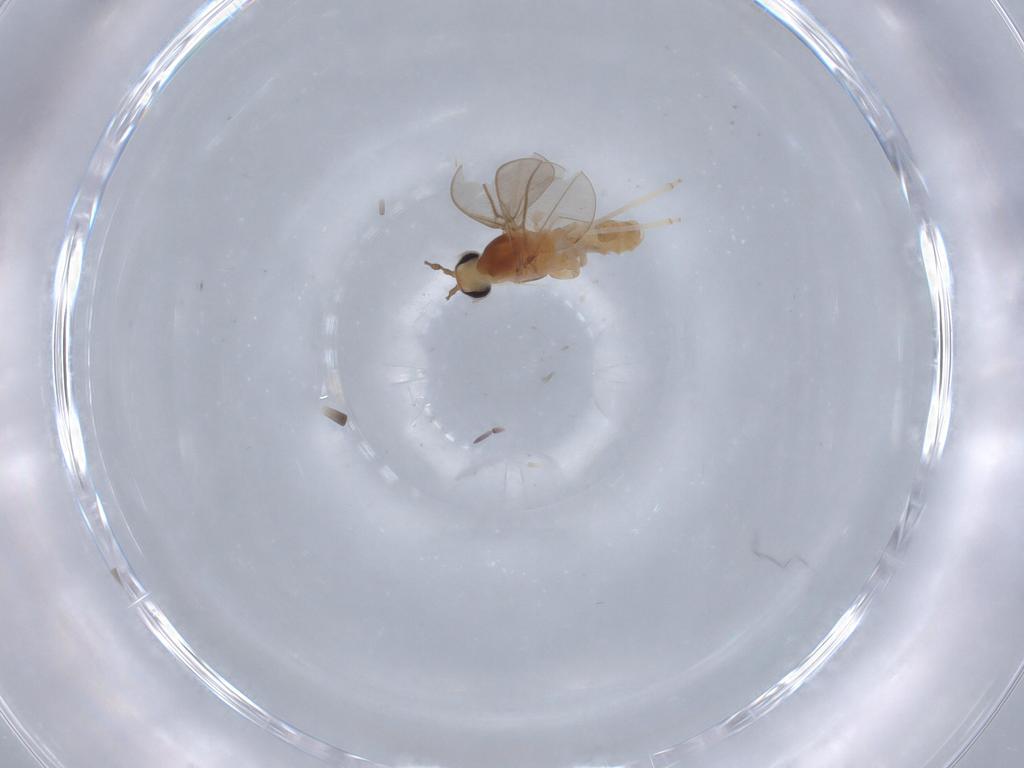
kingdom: Animalia
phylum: Arthropoda
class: Insecta
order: Diptera
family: Cecidomyiidae
